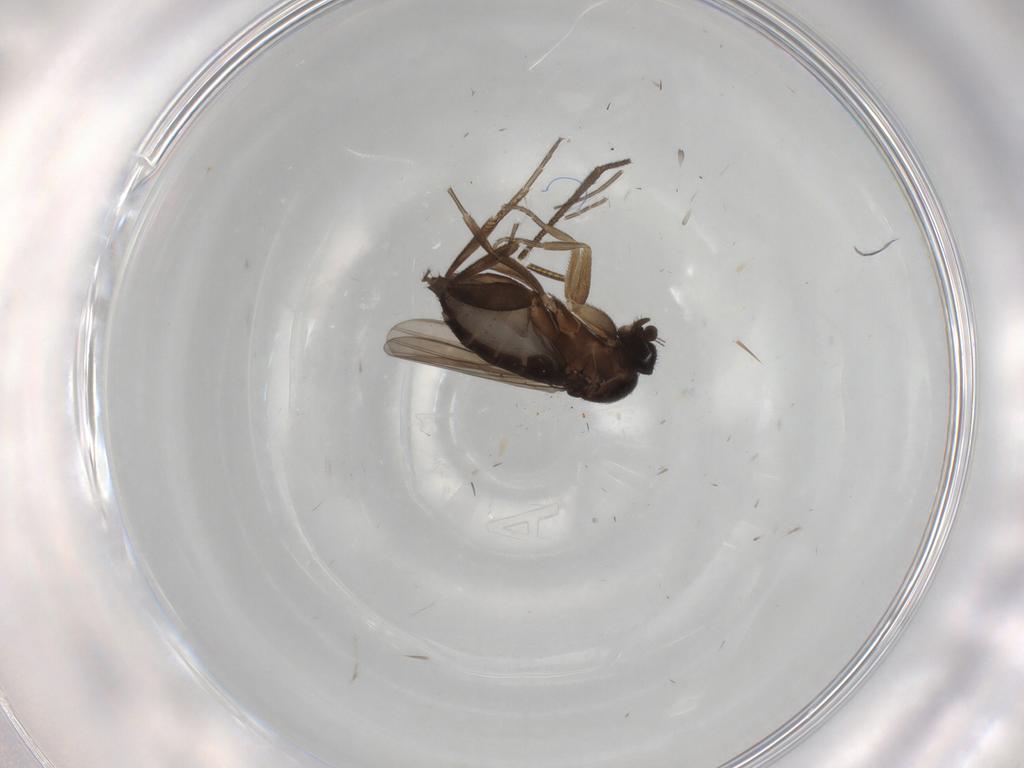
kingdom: Animalia
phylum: Arthropoda
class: Insecta
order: Diptera
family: Phoridae
